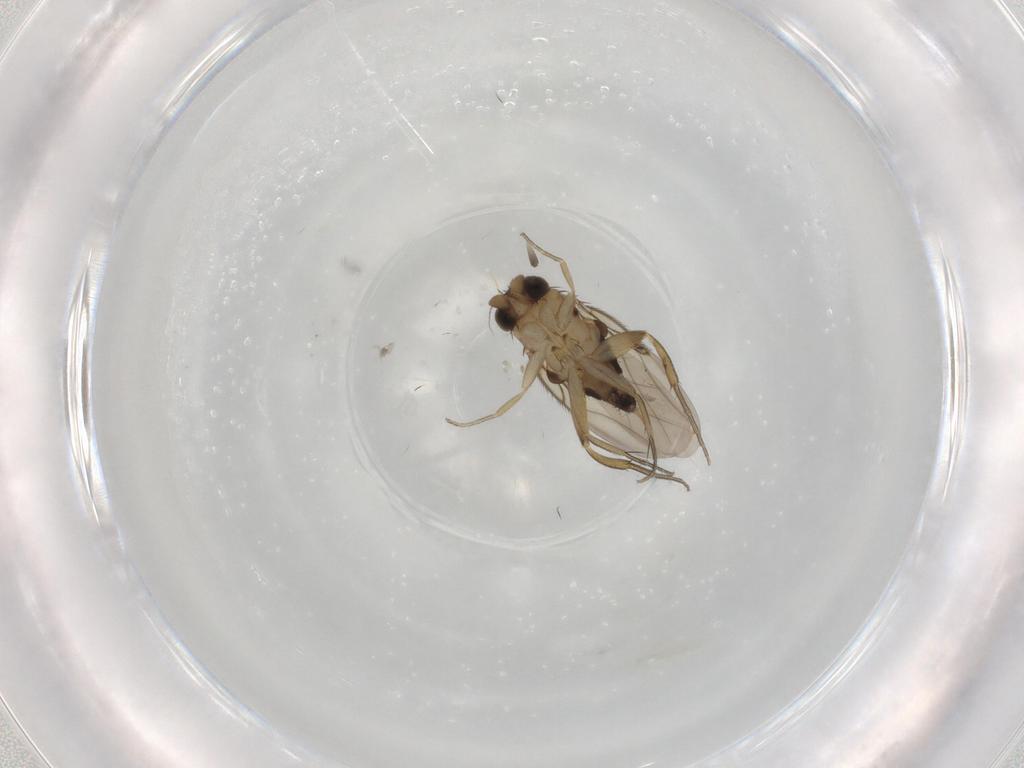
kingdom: Animalia
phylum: Arthropoda
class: Insecta
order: Diptera
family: Phoridae
